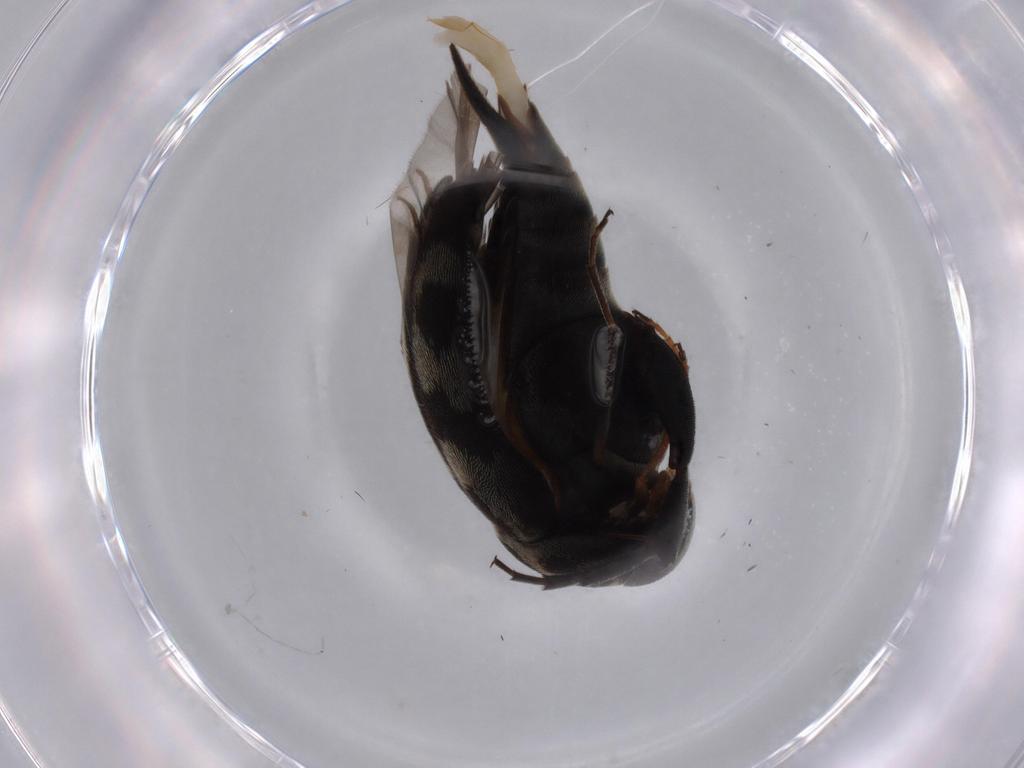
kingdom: Animalia
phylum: Arthropoda
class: Insecta
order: Coleoptera
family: Mordellidae
